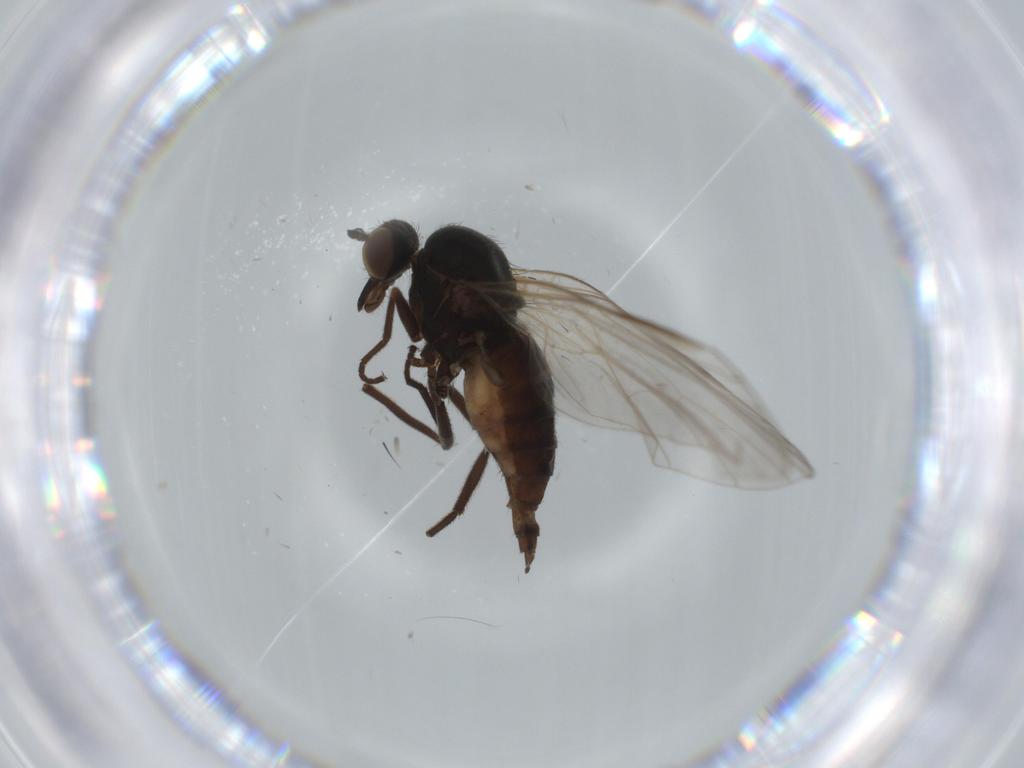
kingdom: Animalia
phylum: Arthropoda
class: Insecta
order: Diptera
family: Empididae
